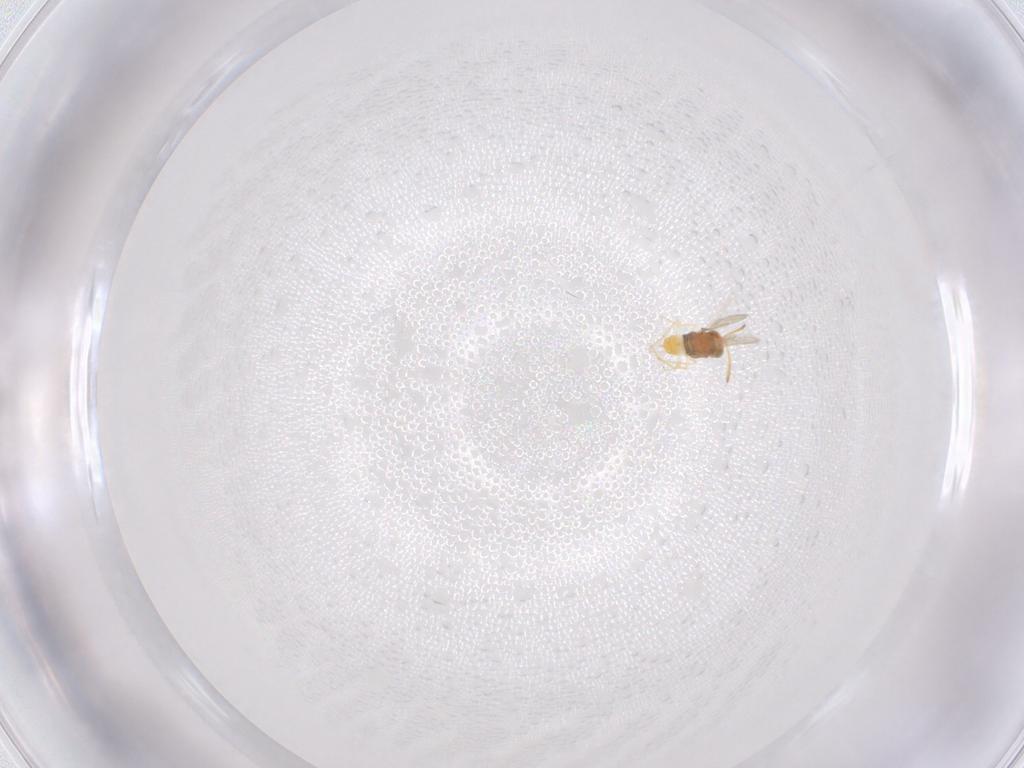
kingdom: Animalia
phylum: Arthropoda
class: Insecta
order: Hymenoptera
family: Aphelinidae
